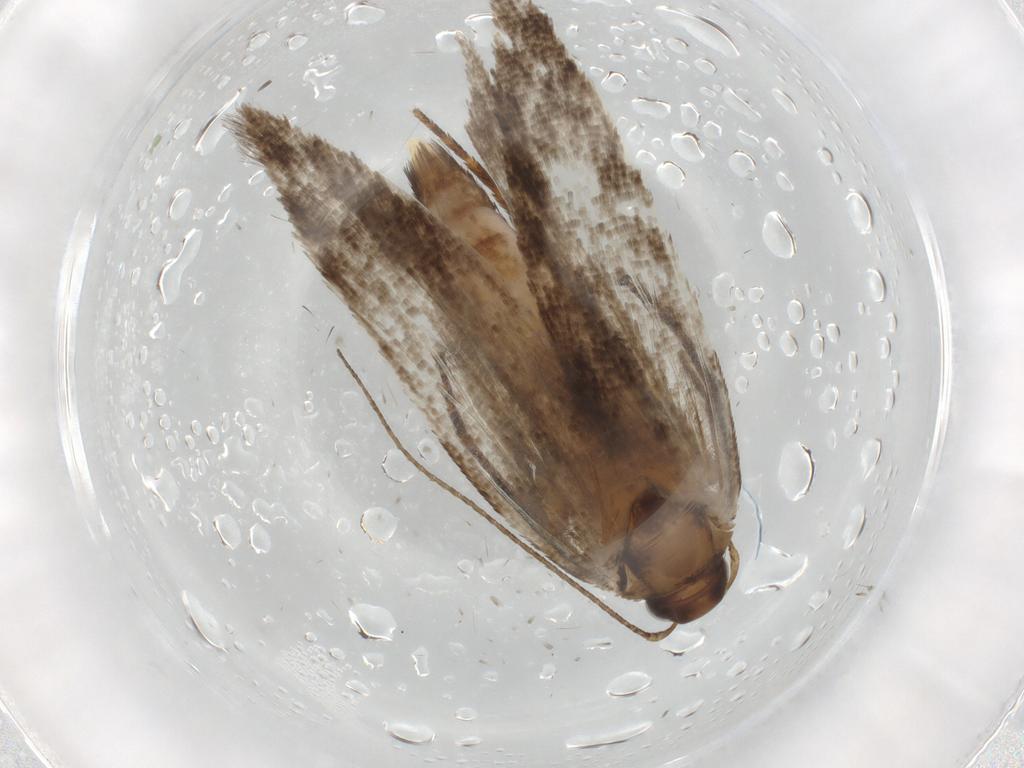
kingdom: Animalia
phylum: Arthropoda
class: Insecta
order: Lepidoptera
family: Gelechiidae
